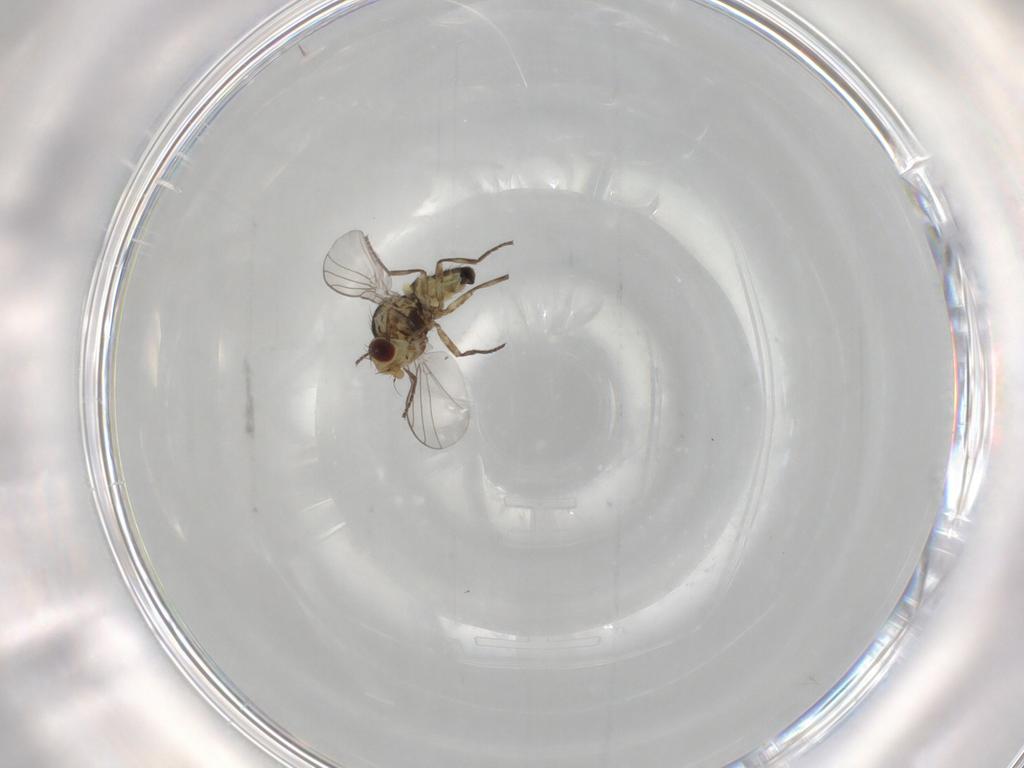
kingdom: Animalia
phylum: Arthropoda
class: Insecta
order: Diptera
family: Agromyzidae
